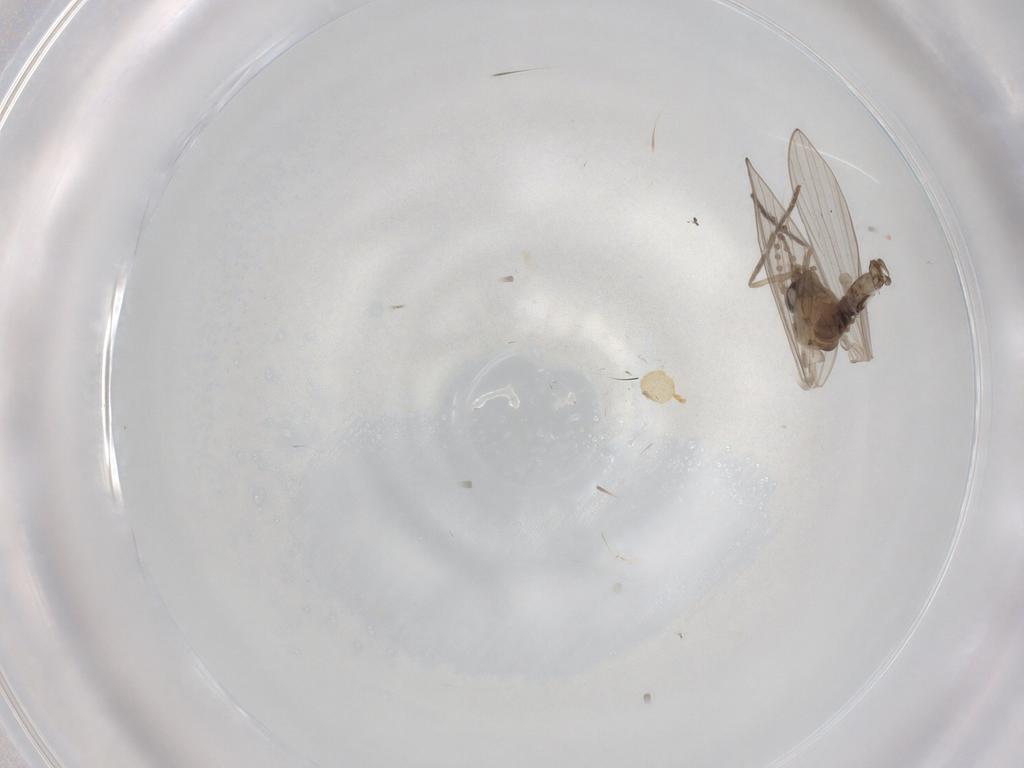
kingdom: Animalia
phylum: Arthropoda
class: Insecta
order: Diptera
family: Psychodidae
